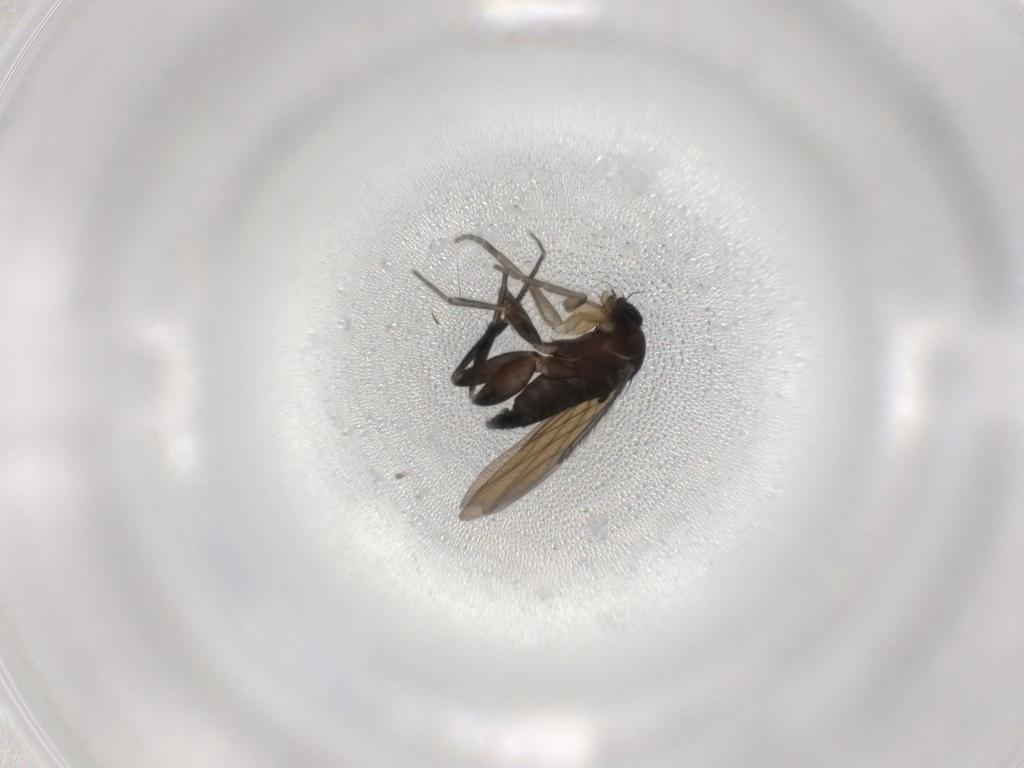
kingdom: Animalia
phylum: Arthropoda
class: Insecta
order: Diptera
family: Phoridae
